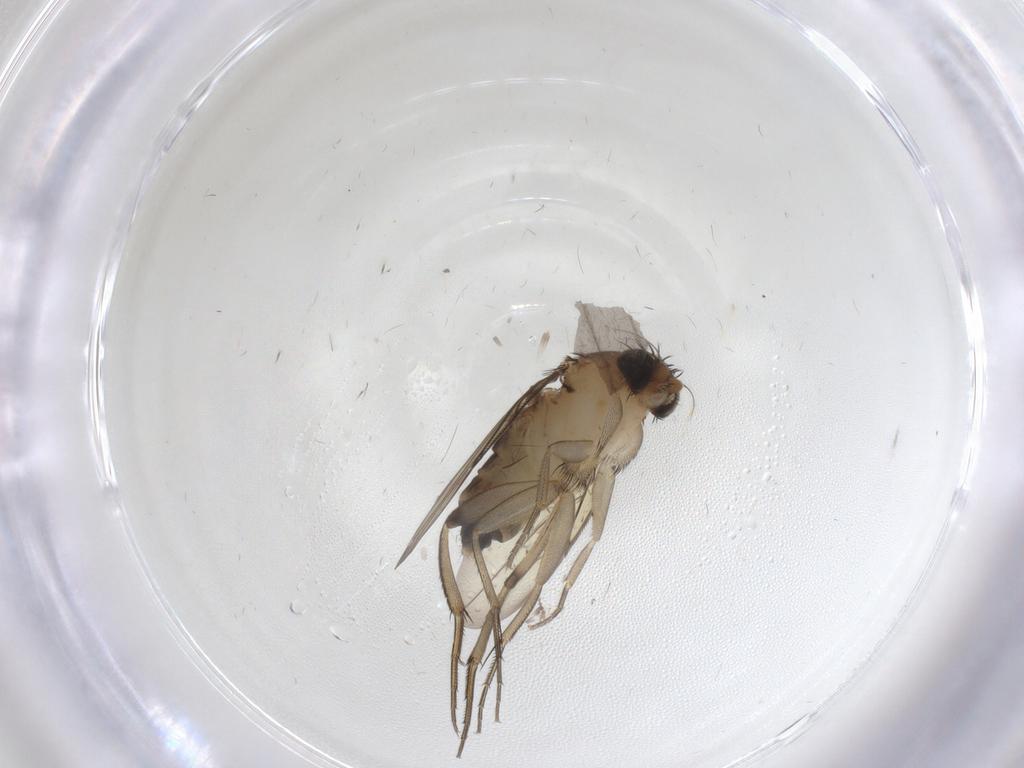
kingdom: Animalia
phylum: Arthropoda
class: Insecta
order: Diptera
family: Phoridae
